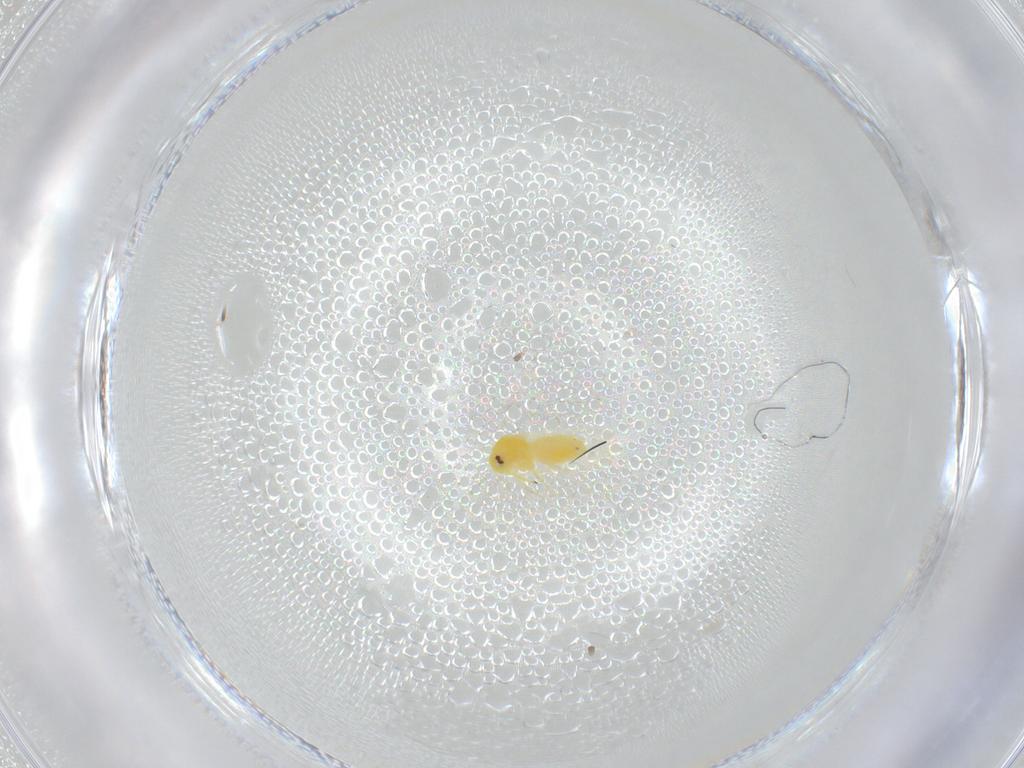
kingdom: Animalia
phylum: Arthropoda
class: Insecta
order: Hemiptera
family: Aleyrodidae
